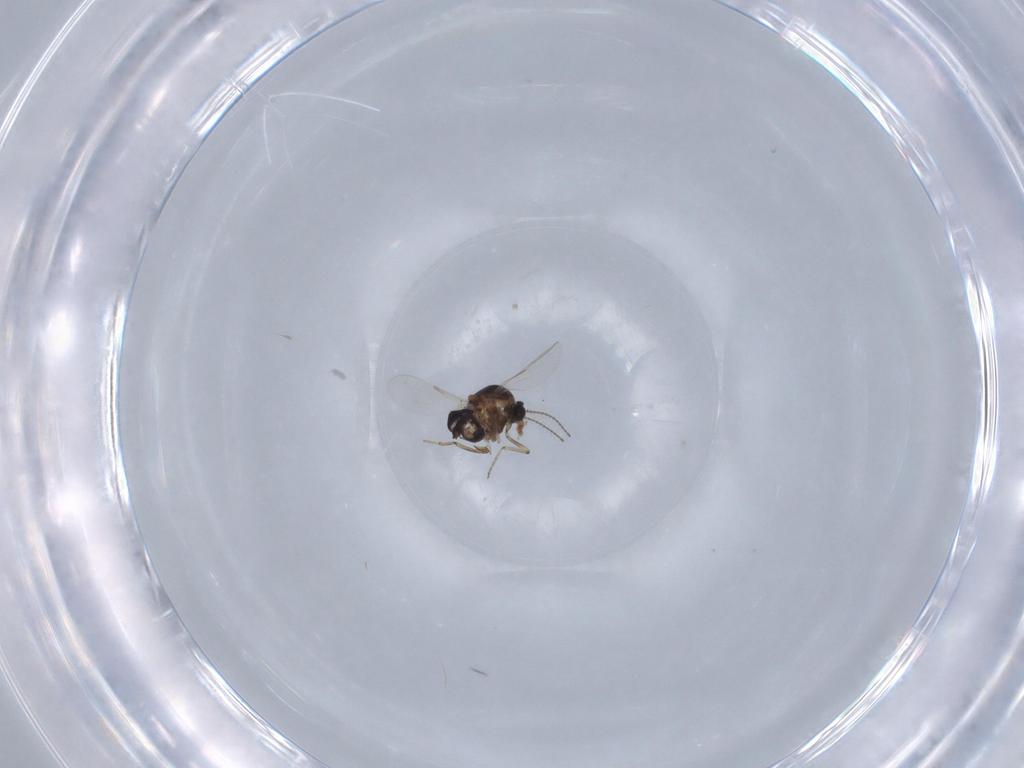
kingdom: Animalia
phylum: Arthropoda
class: Insecta
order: Diptera
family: Ceratopogonidae
